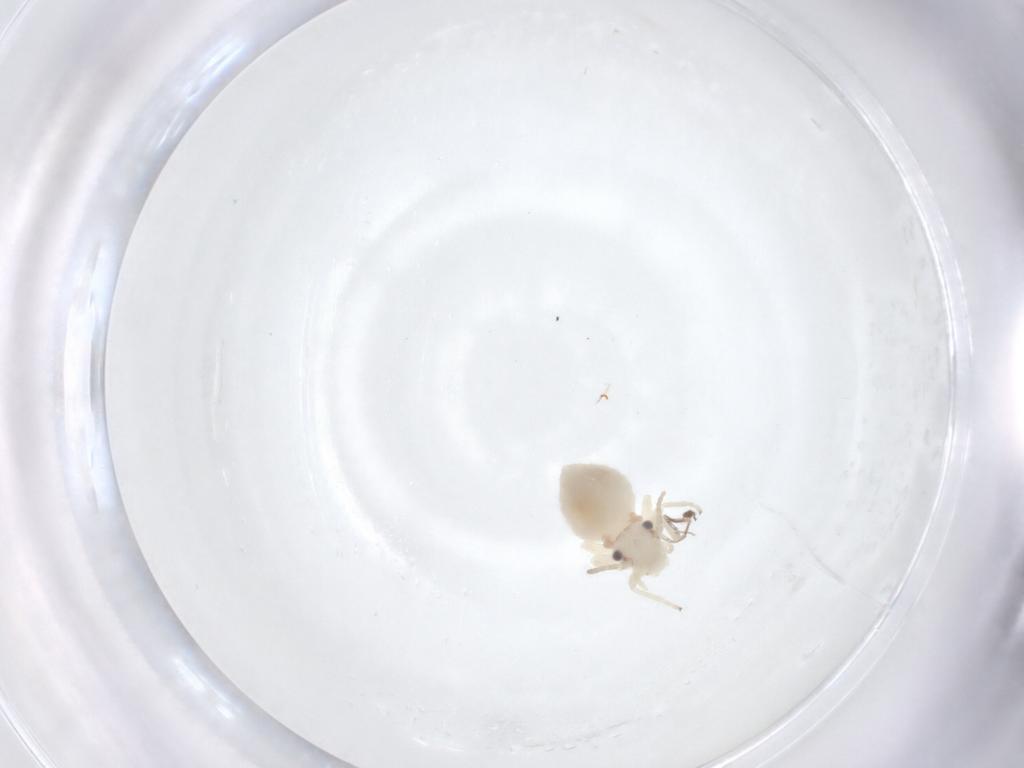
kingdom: Animalia
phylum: Arthropoda
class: Insecta
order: Psocodea
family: Amphipsocidae
